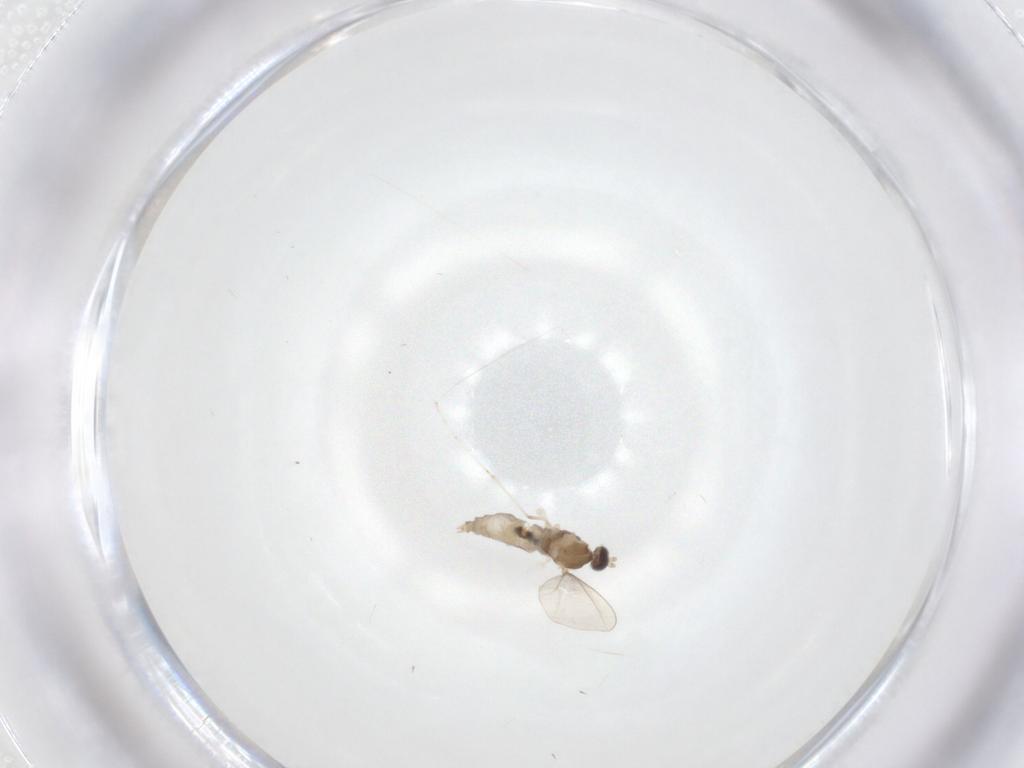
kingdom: Animalia
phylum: Arthropoda
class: Insecta
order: Diptera
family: Cecidomyiidae
